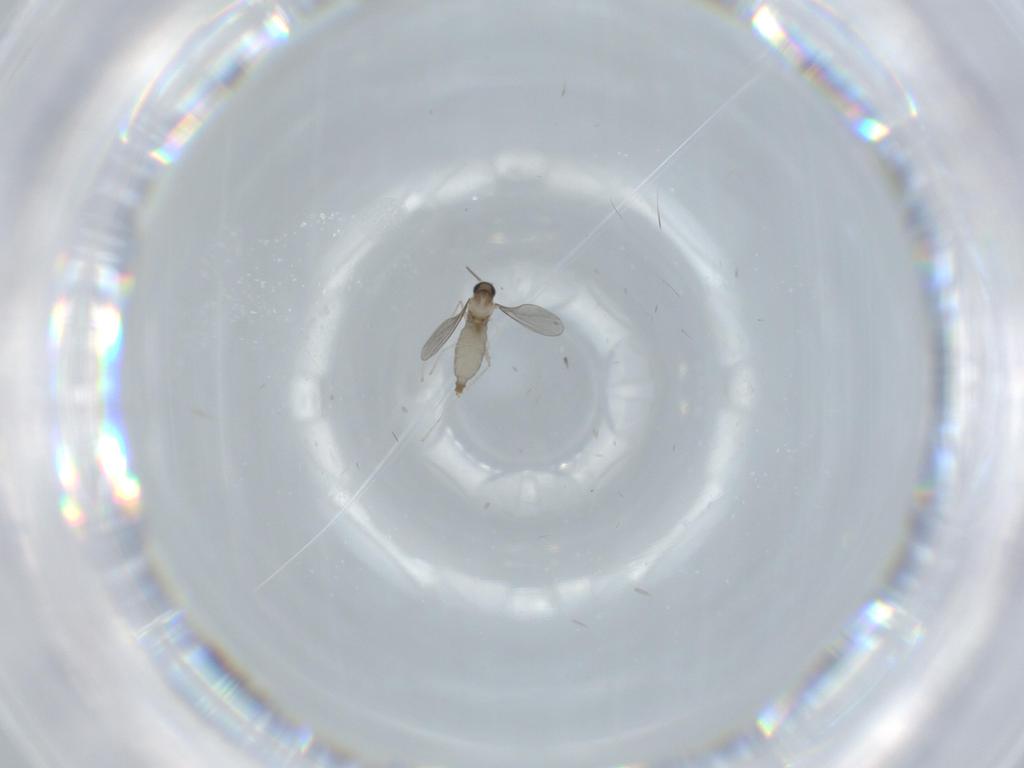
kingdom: Animalia
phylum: Arthropoda
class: Insecta
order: Diptera
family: Cecidomyiidae
